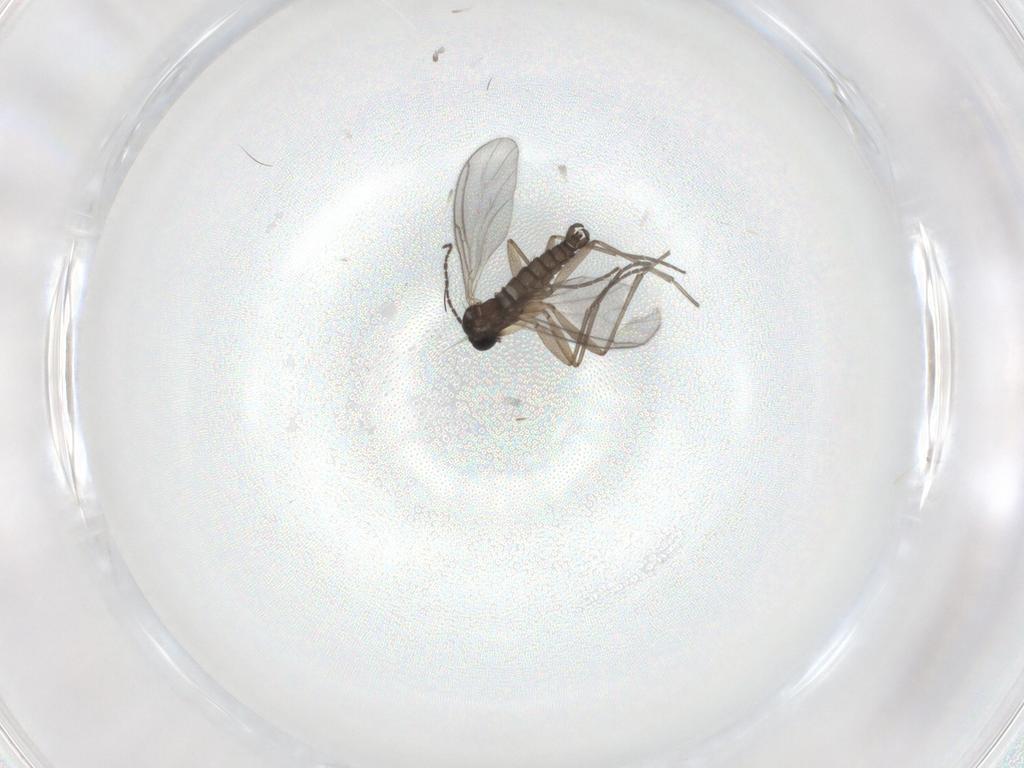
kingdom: Animalia
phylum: Arthropoda
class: Insecta
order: Diptera
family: Sciaridae
